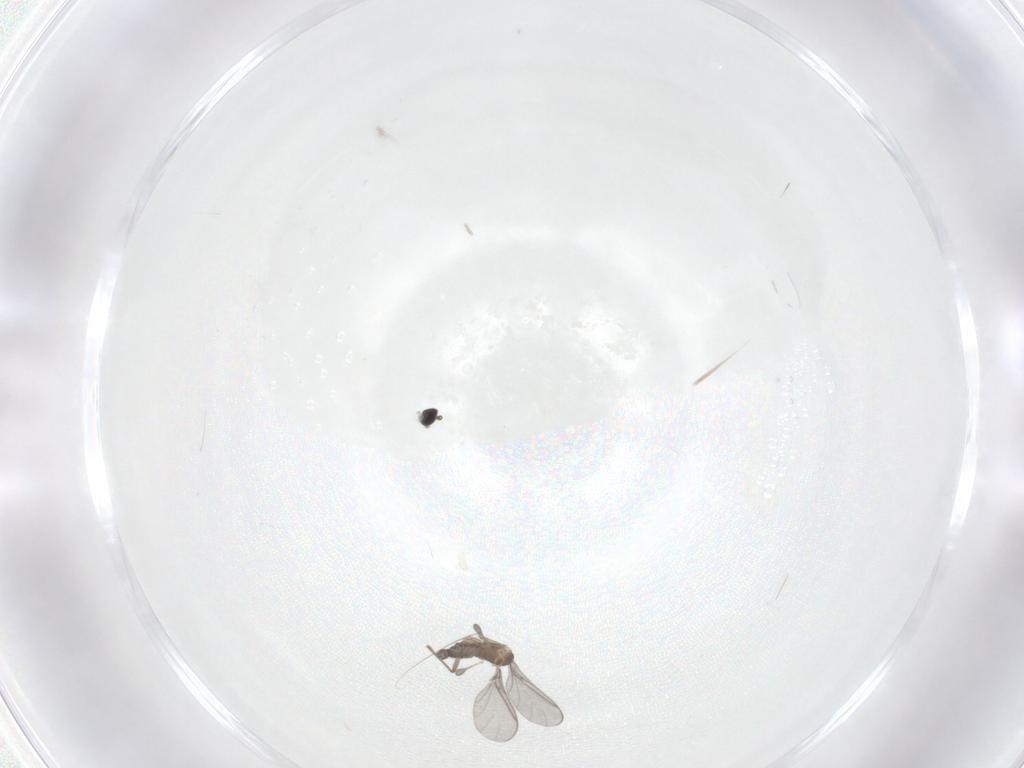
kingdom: Animalia
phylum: Arthropoda
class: Insecta
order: Diptera
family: Sciaridae
